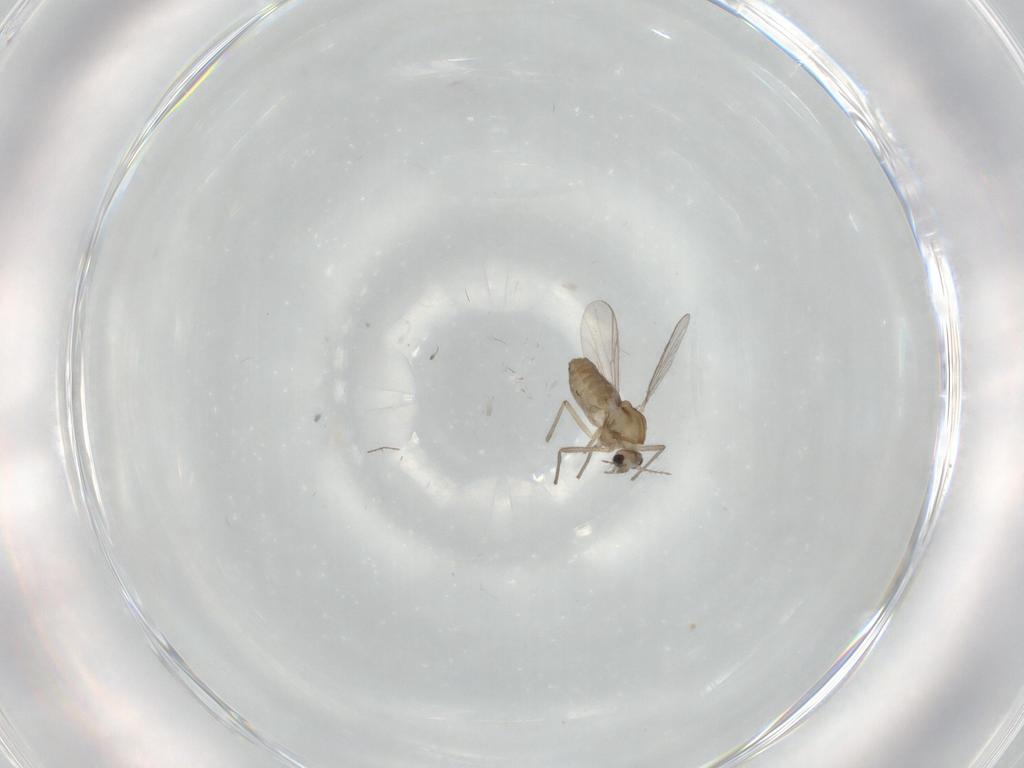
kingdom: Animalia
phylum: Arthropoda
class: Insecta
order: Diptera
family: Chironomidae
